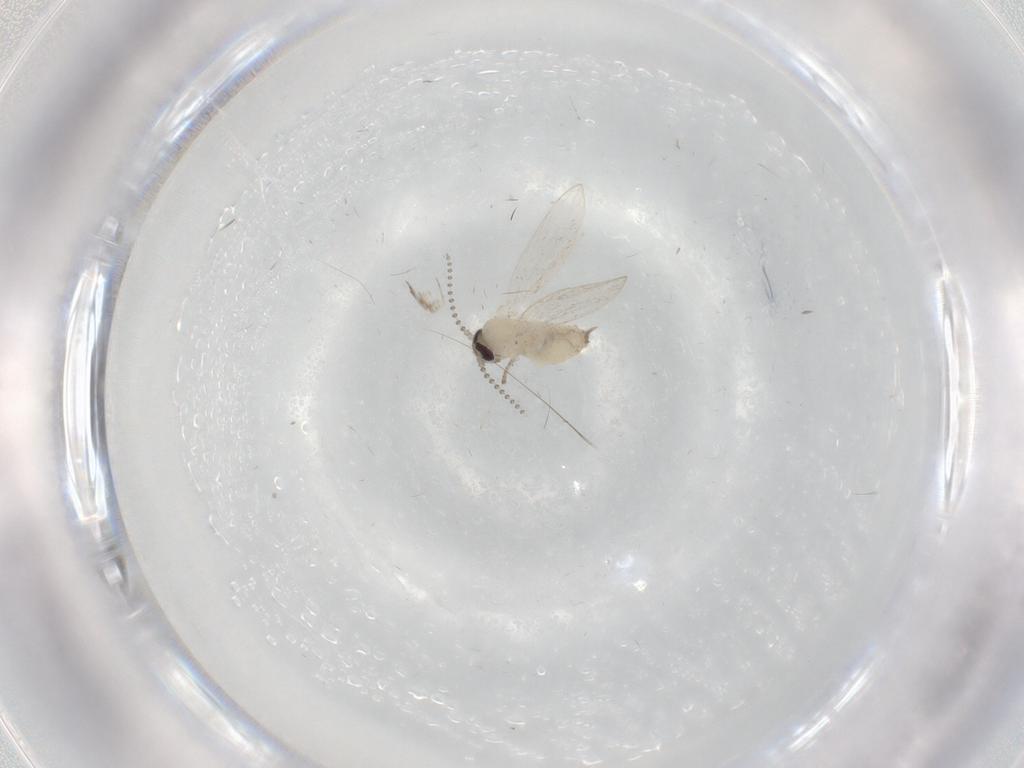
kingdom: Animalia
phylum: Arthropoda
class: Insecta
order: Diptera
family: Psychodidae
